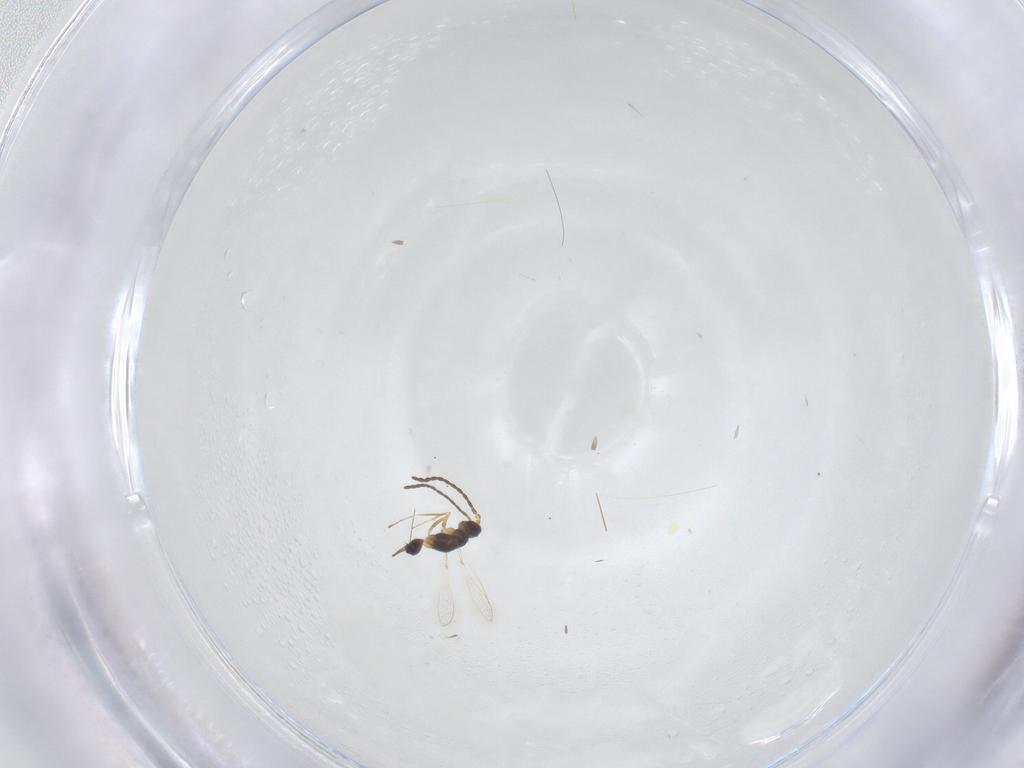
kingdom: Animalia
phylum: Arthropoda
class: Insecta
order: Hymenoptera
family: Mymaridae
